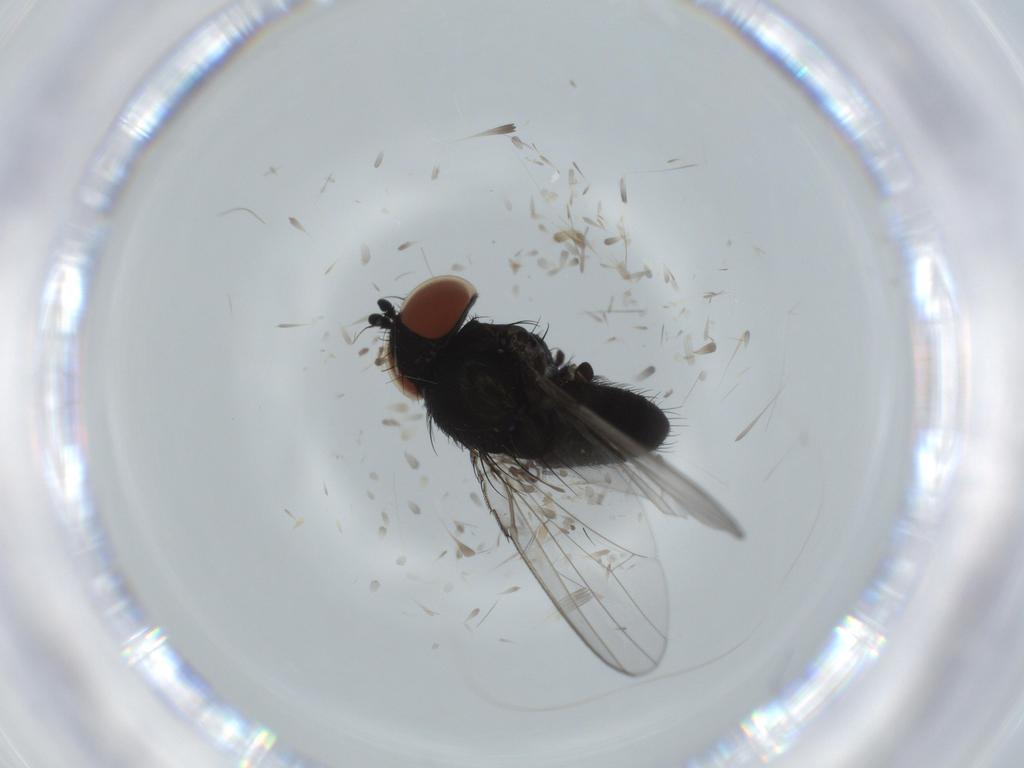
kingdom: Animalia
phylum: Arthropoda
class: Insecta
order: Diptera
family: Milichiidae
